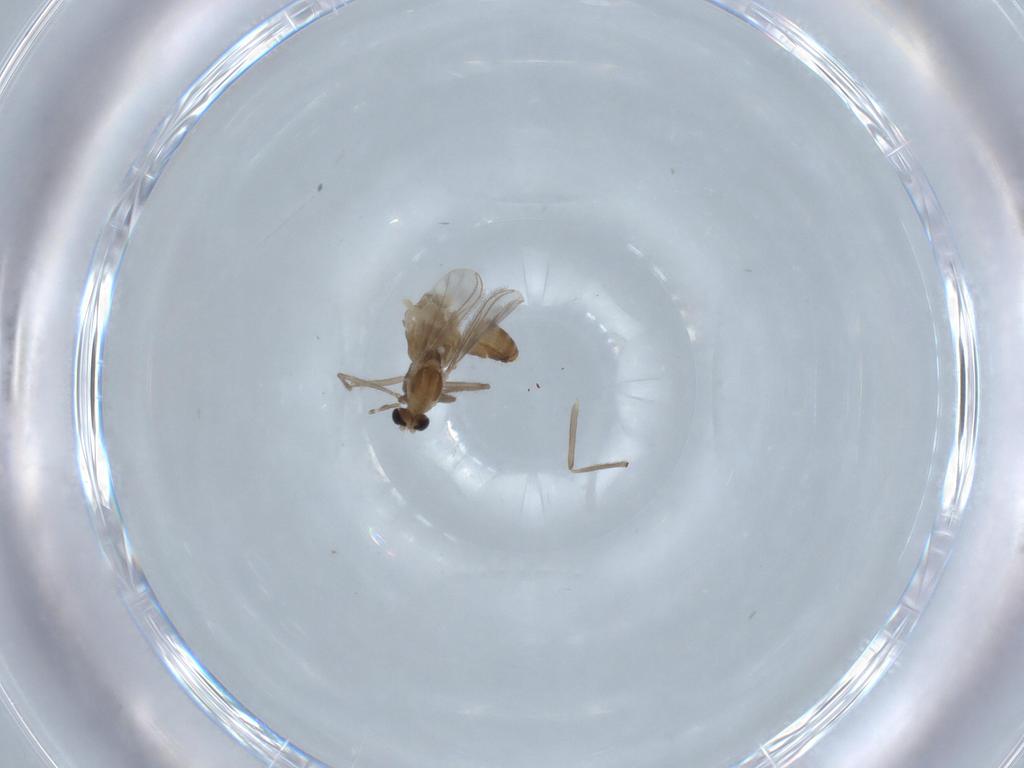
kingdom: Animalia
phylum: Arthropoda
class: Insecta
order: Diptera
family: Chironomidae
